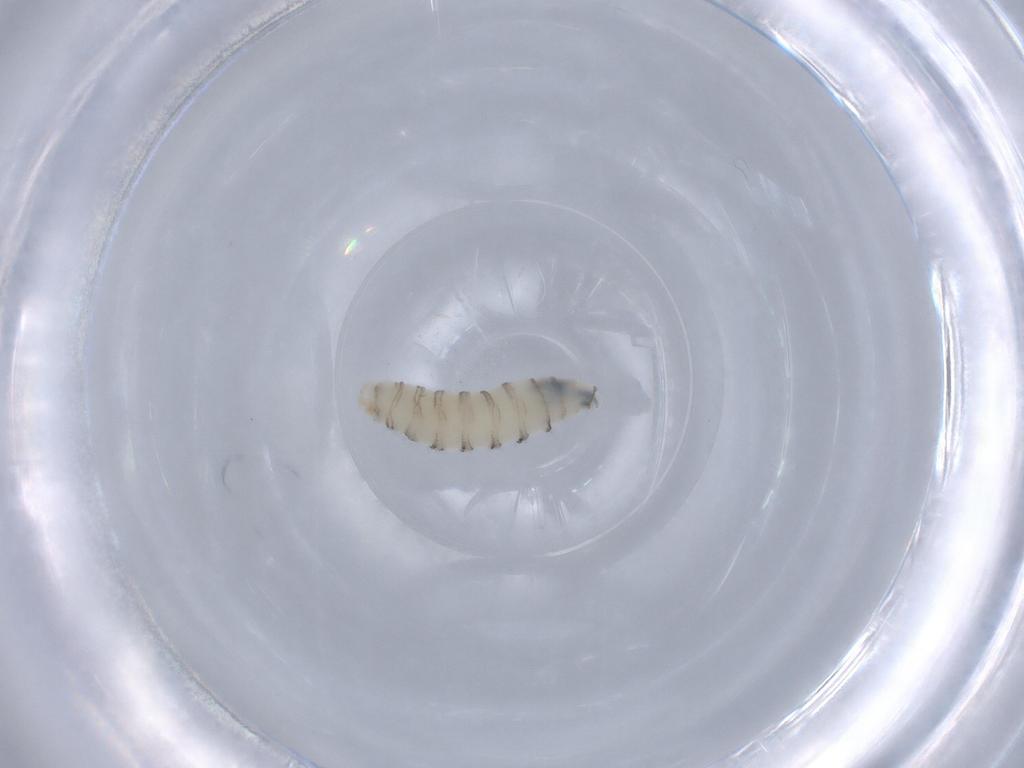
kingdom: Animalia
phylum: Arthropoda
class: Insecta
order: Diptera
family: Sarcophagidae
